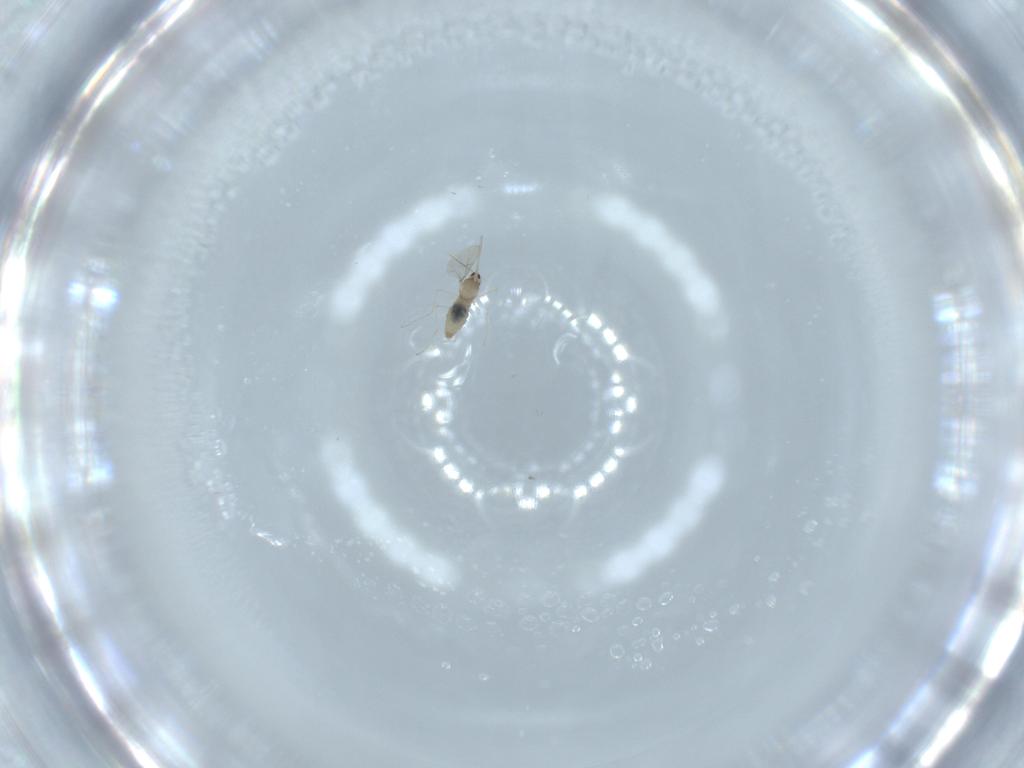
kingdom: Animalia
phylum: Arthropoda
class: Insecta
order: Diptera
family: Cecidomyiidae
